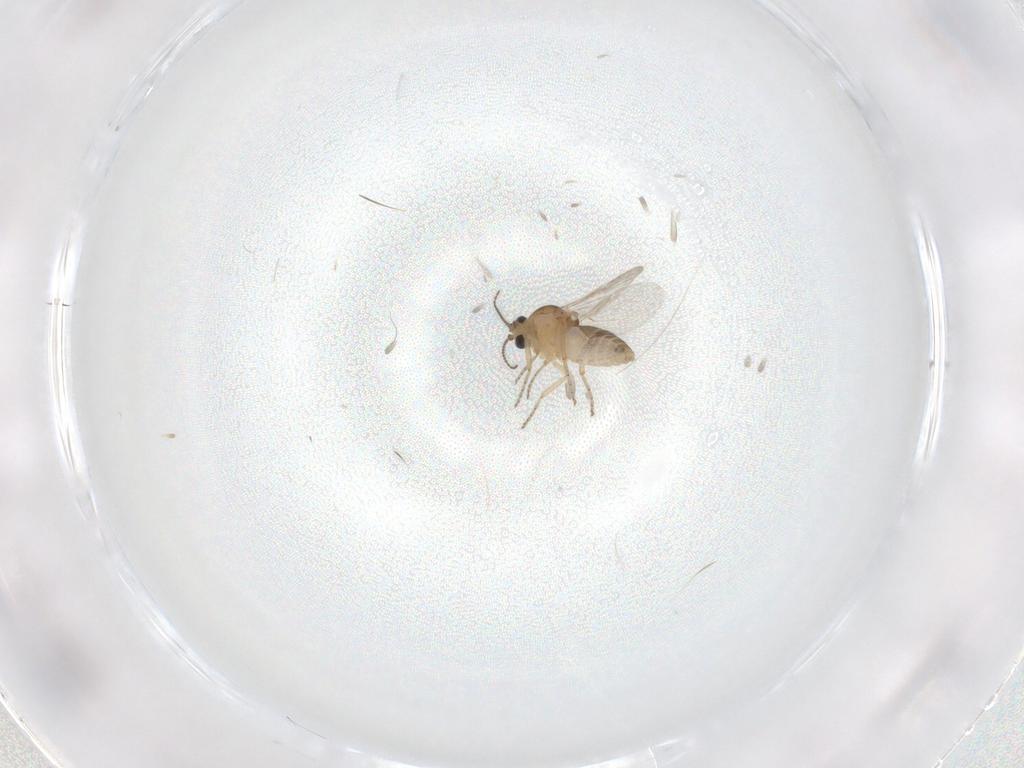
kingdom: Animalia
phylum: Arthropoda
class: Insecta
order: Diptera
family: Ceratopogonidae
